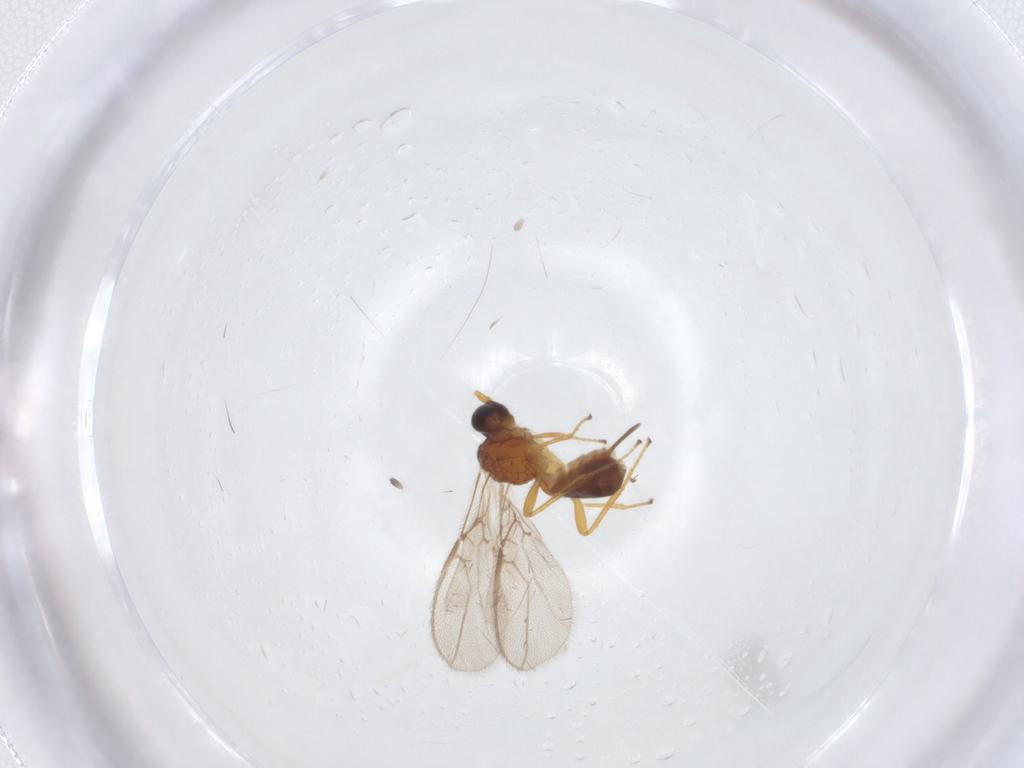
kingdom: Animalia
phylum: Arthropoda
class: Insecta
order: Hymenoptera
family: Braconidae
